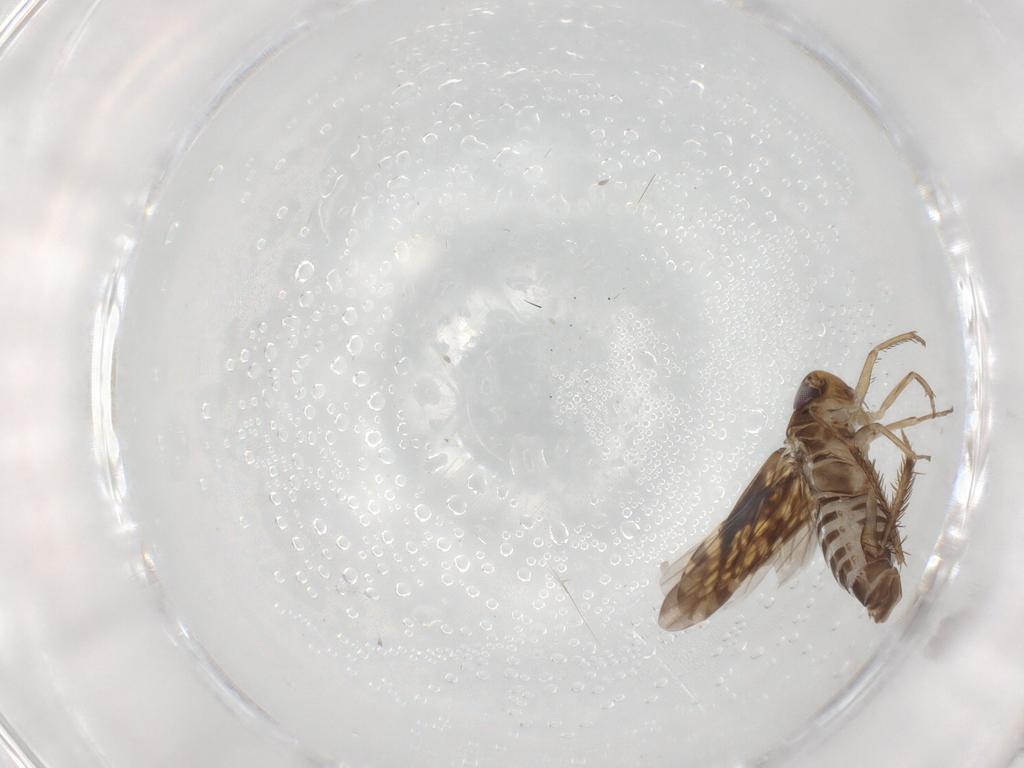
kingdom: Animalia
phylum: Arthropoda
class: Insecta
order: Hemiptera
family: Cicadellidae
